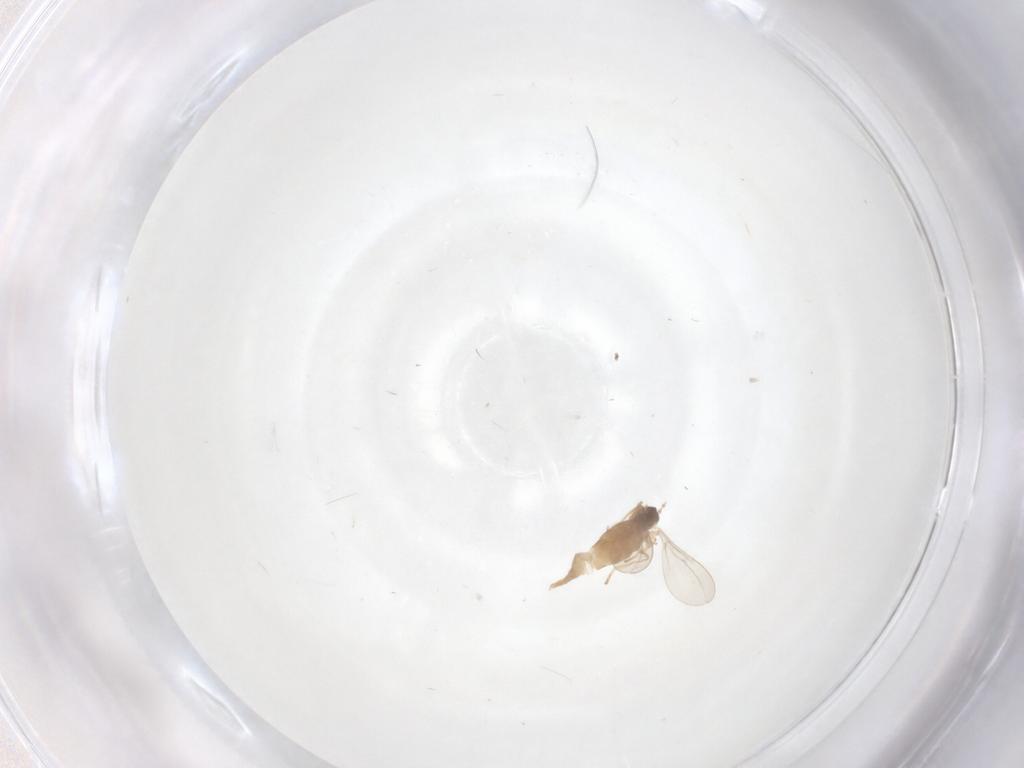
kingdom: Animalia
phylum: Arthropoda
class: Insecta
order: Diptera
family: Cecidomyiidae
